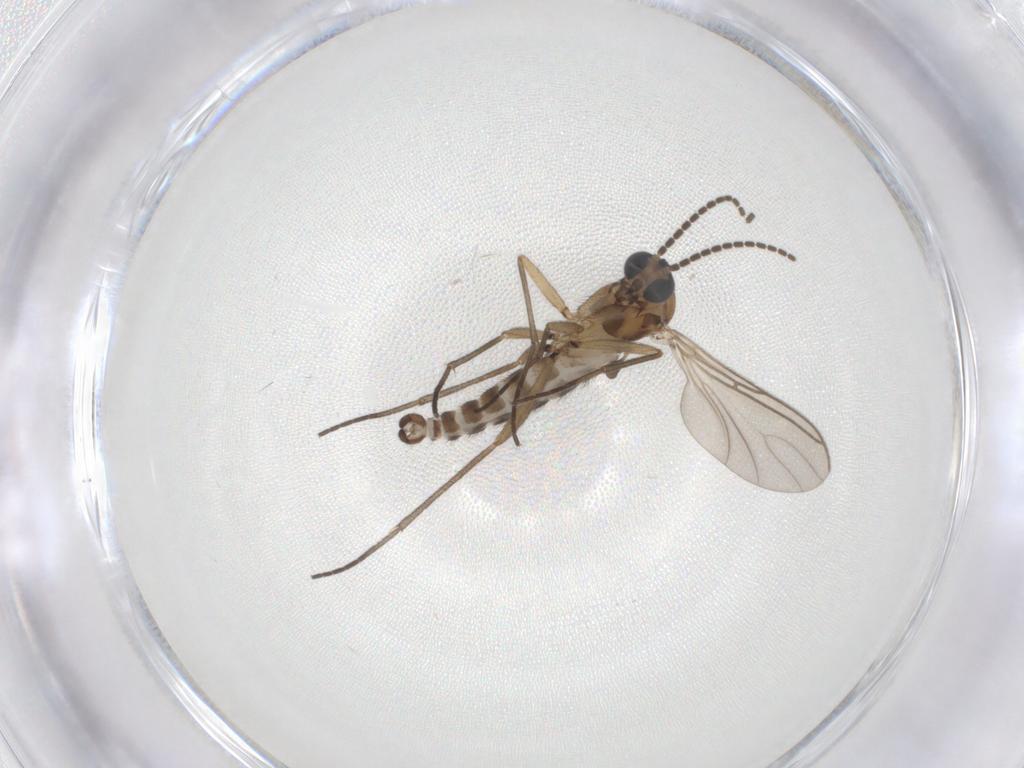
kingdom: Animalia
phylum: Arthropoda
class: Insecta
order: Diptera
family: Sciaridae
